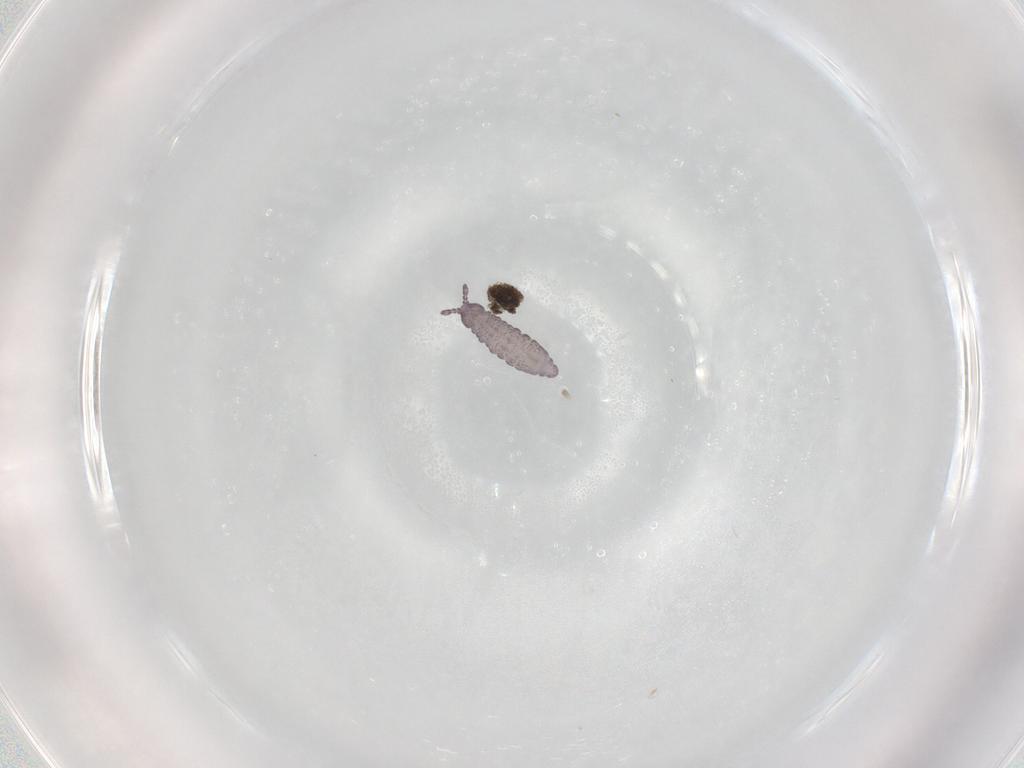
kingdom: Animalia
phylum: Arthropoda
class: Collembola
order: Poduromorpha
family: Hypogastruridae
